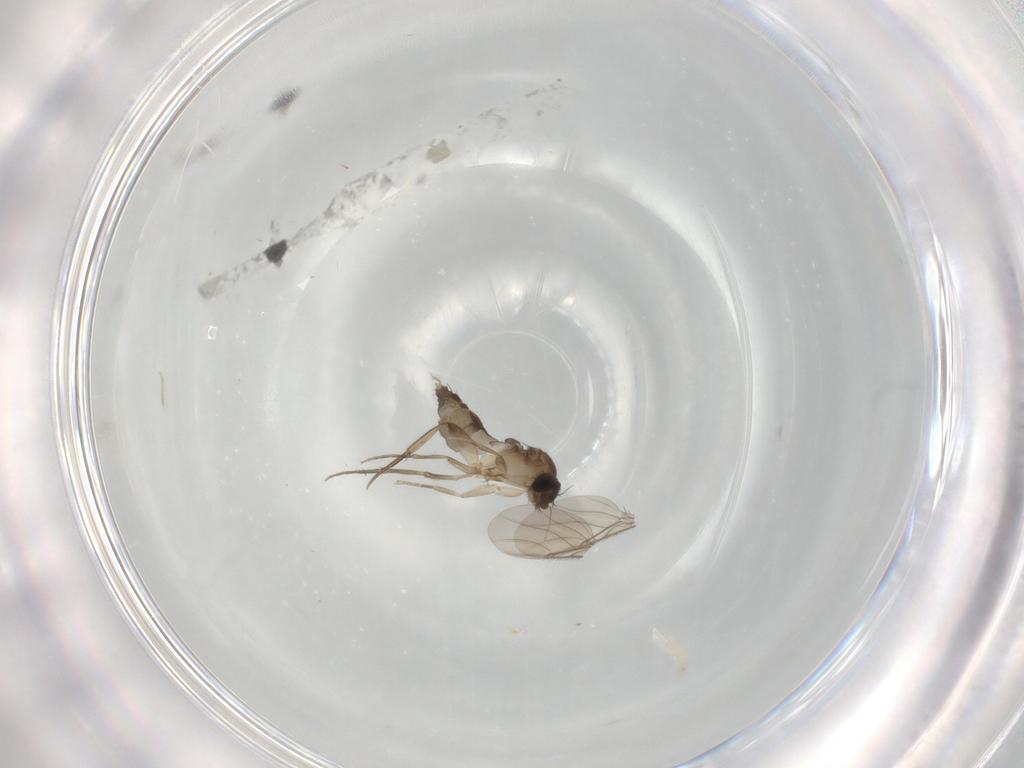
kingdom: Animalia
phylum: Arthropoda
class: Insecta
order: Diptera
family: Phoridae
